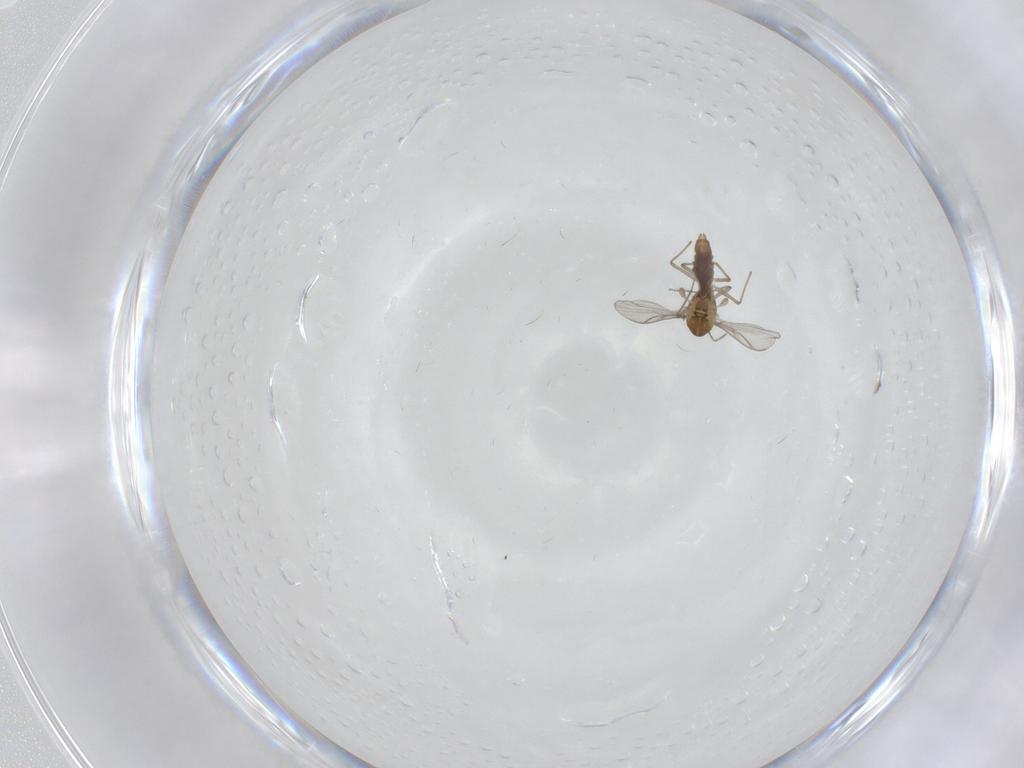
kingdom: Animalia
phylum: Arthropoda
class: Insecta
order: Diptera
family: Chironomidae
